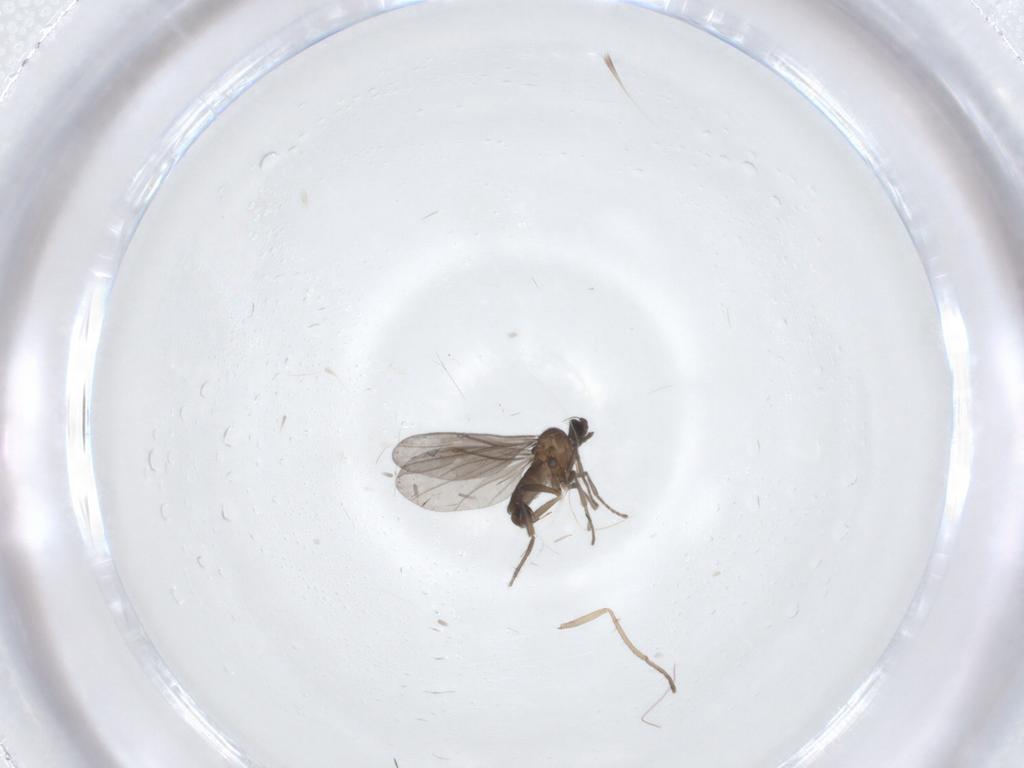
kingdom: Animalia
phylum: Arthropoda
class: Insecta
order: Diptera
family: Phoridae
